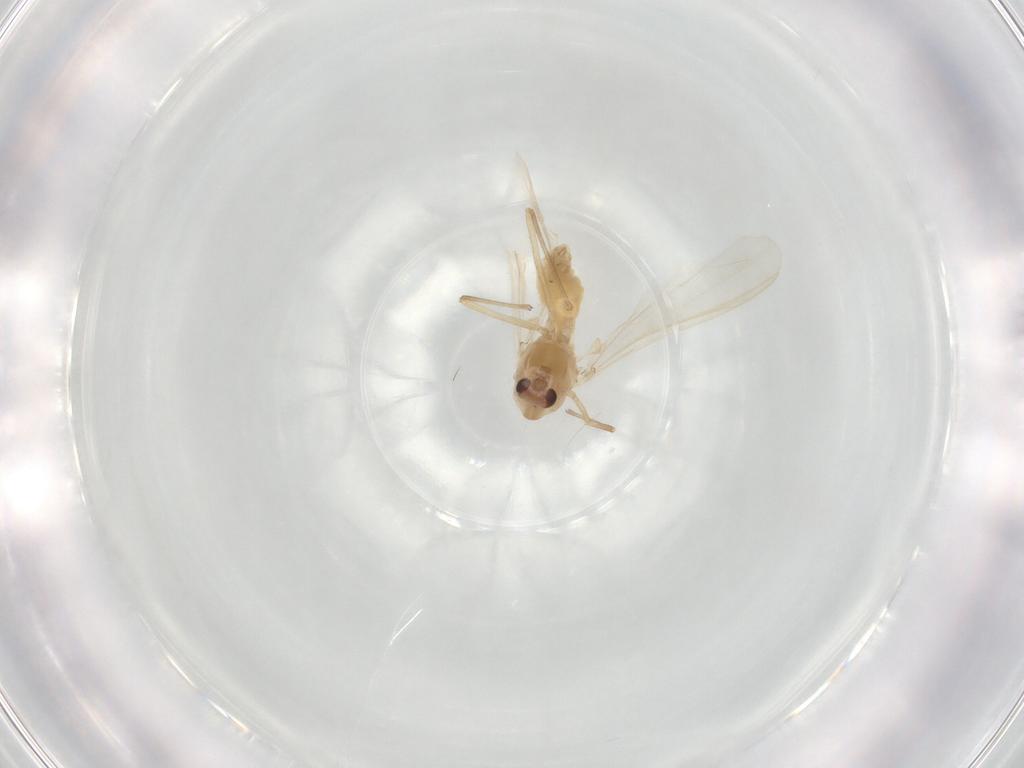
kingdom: Animalia
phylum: Arthropoda
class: Insecta
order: Diptera
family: Chironomidae
